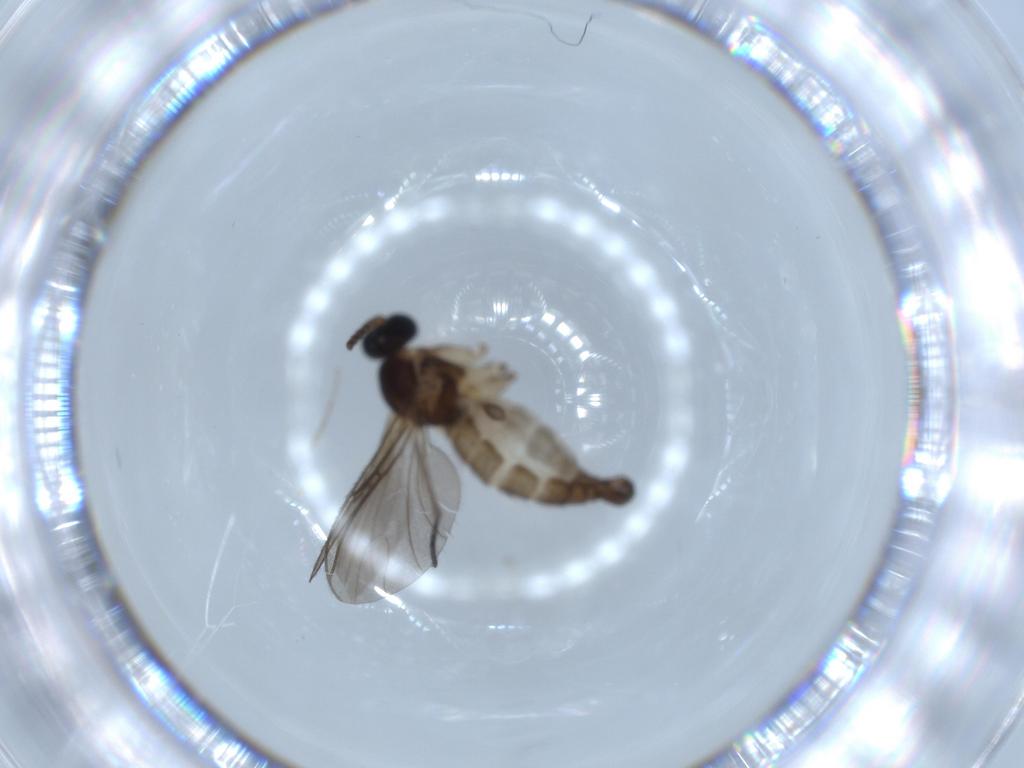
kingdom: Animalia
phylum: Arthropoda
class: Insecta
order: Diptera
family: Sciaridae
